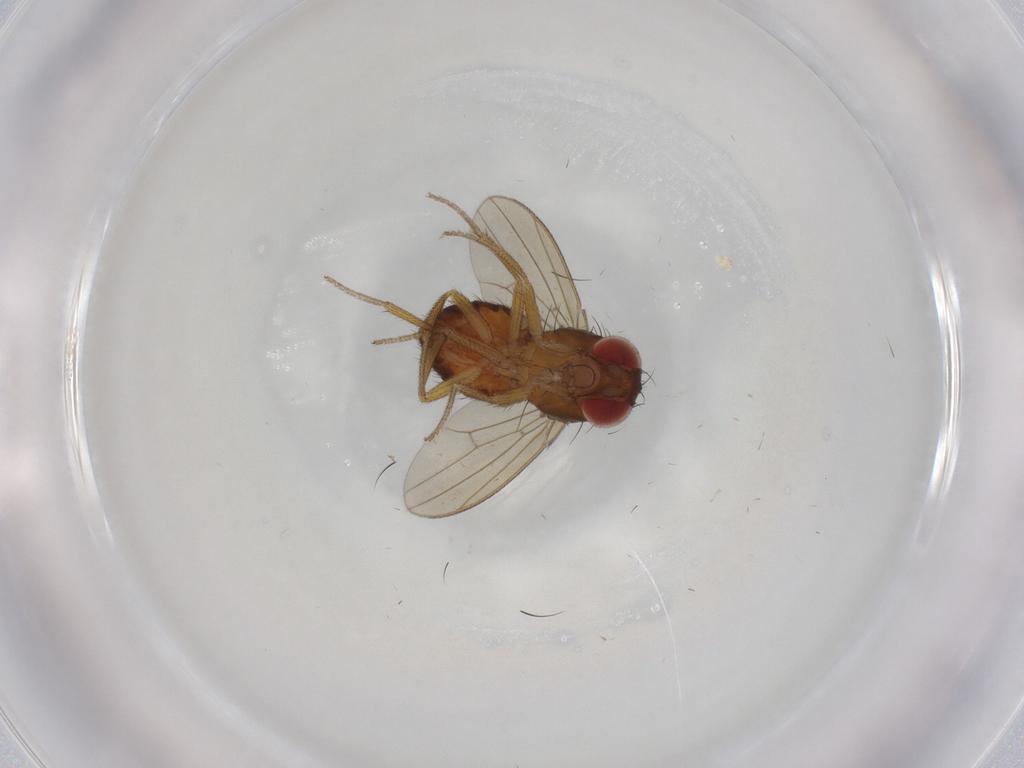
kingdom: Animalia
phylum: Arthropoda
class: Insecta
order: Diptera
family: Drosophilidae
